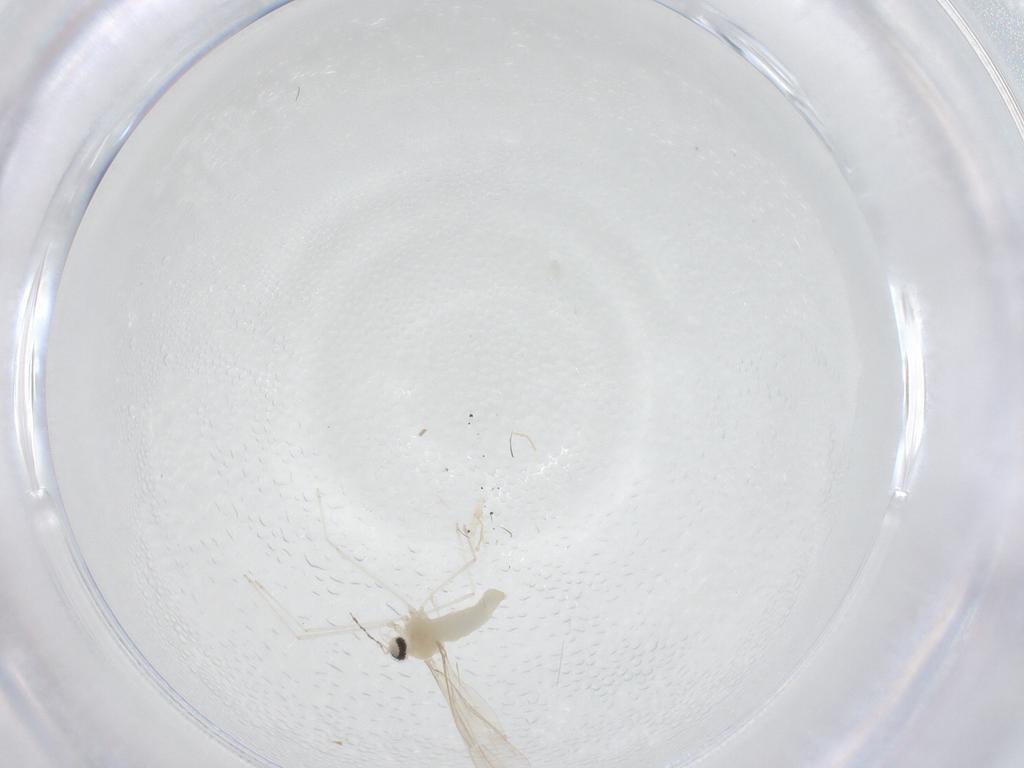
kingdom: Animalia
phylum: Arthropoda
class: Insecta
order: Diptera
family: Cecidomyiidae
